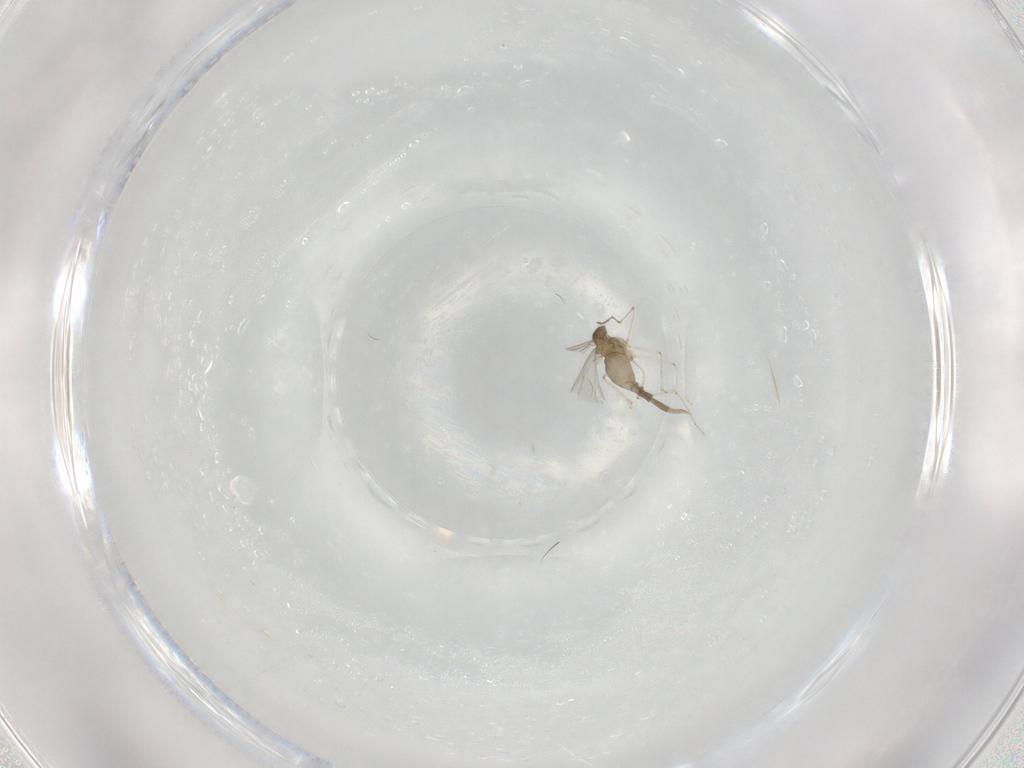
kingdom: Animalia
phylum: Arthropoda
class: Insecta
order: Diptera
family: Cecidomyiidae
